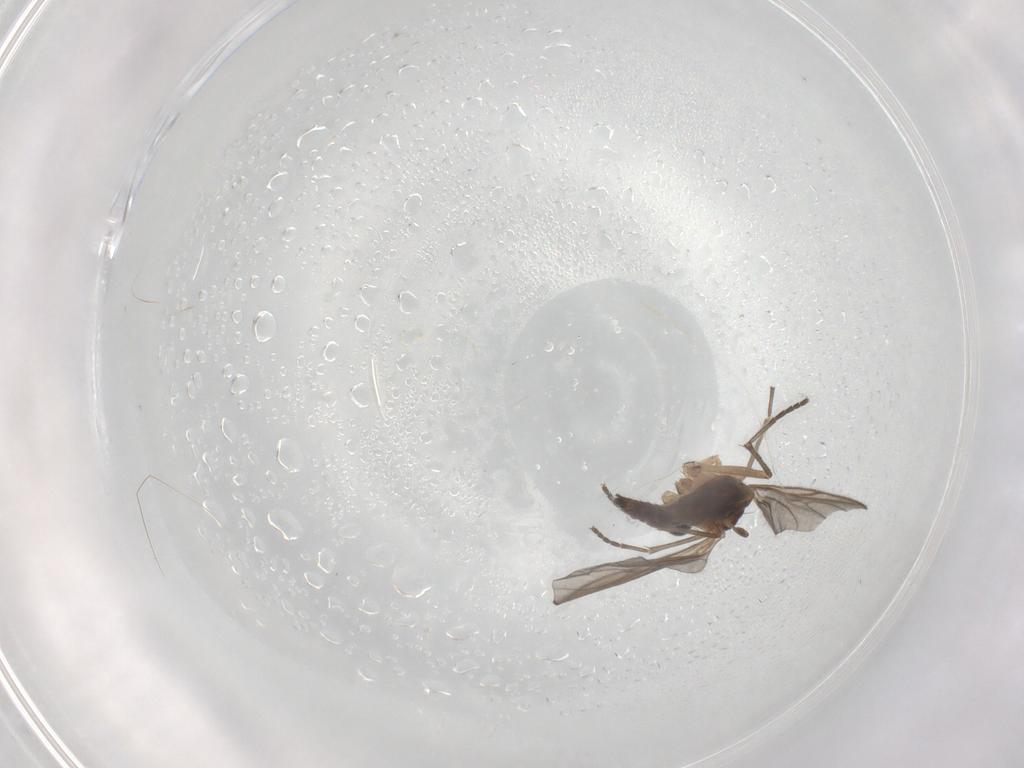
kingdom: Animalia
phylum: Arthropoda
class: Insecta
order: Diptera
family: Sciaridae
